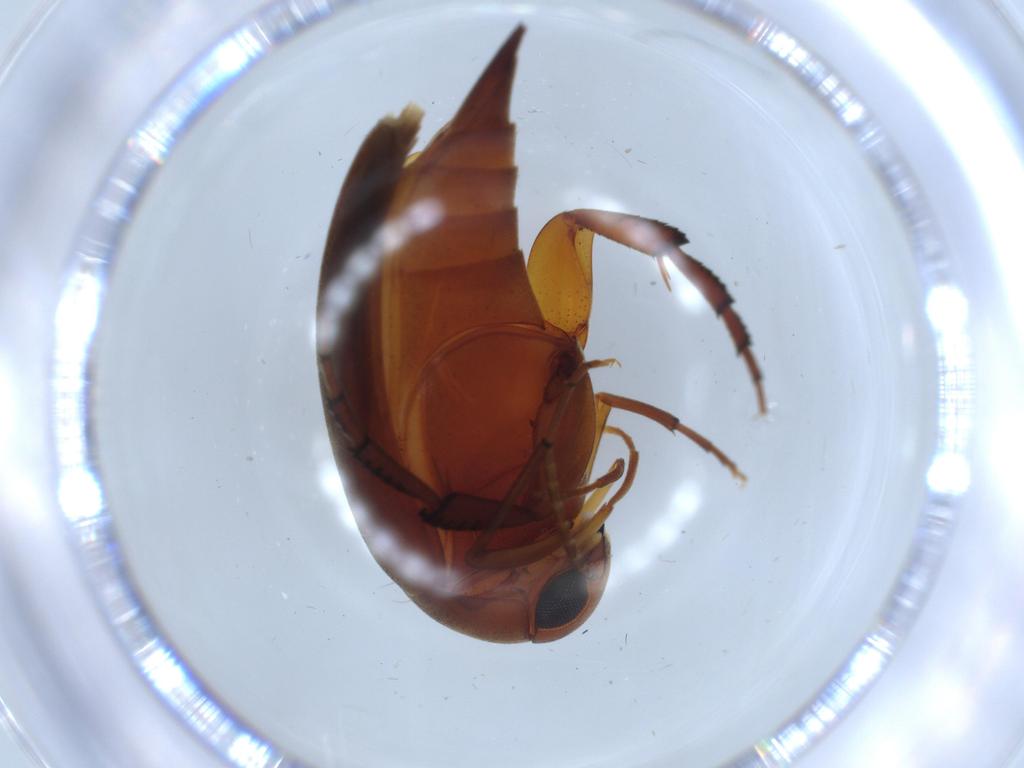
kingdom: Animalia
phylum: Arthropoda
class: Insecta
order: Coleoptera
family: Mordellidae
